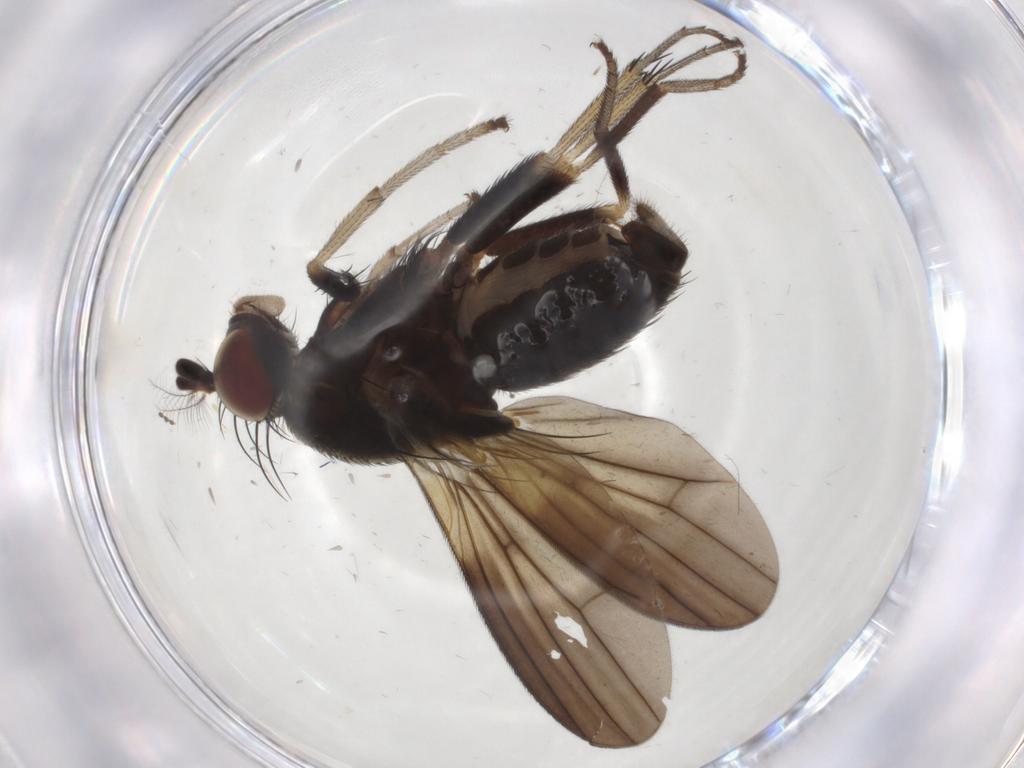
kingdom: Animalia
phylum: Arthropoda
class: Insecta
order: Diptera
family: Cecidomyiidae
